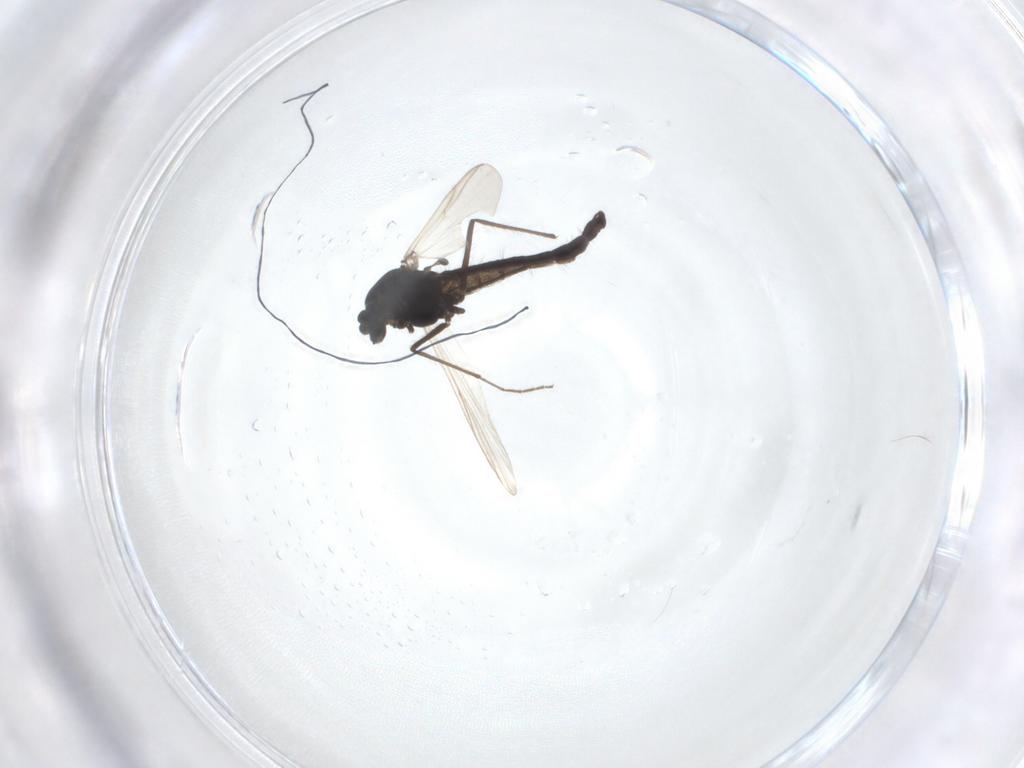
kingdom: Animalia
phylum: Arthropoda
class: Insecta
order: Diptera
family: Chironomidae
